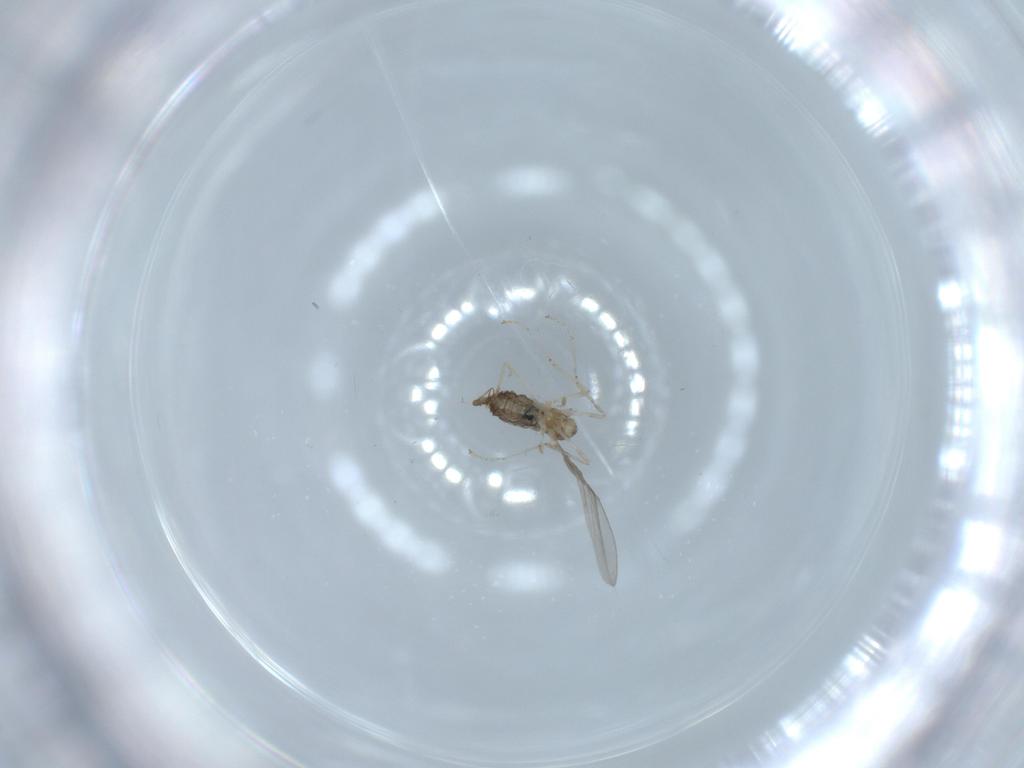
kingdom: Animalia
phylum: Arthropoda
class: Insecta
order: Diptera
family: Cecidomyiidae
